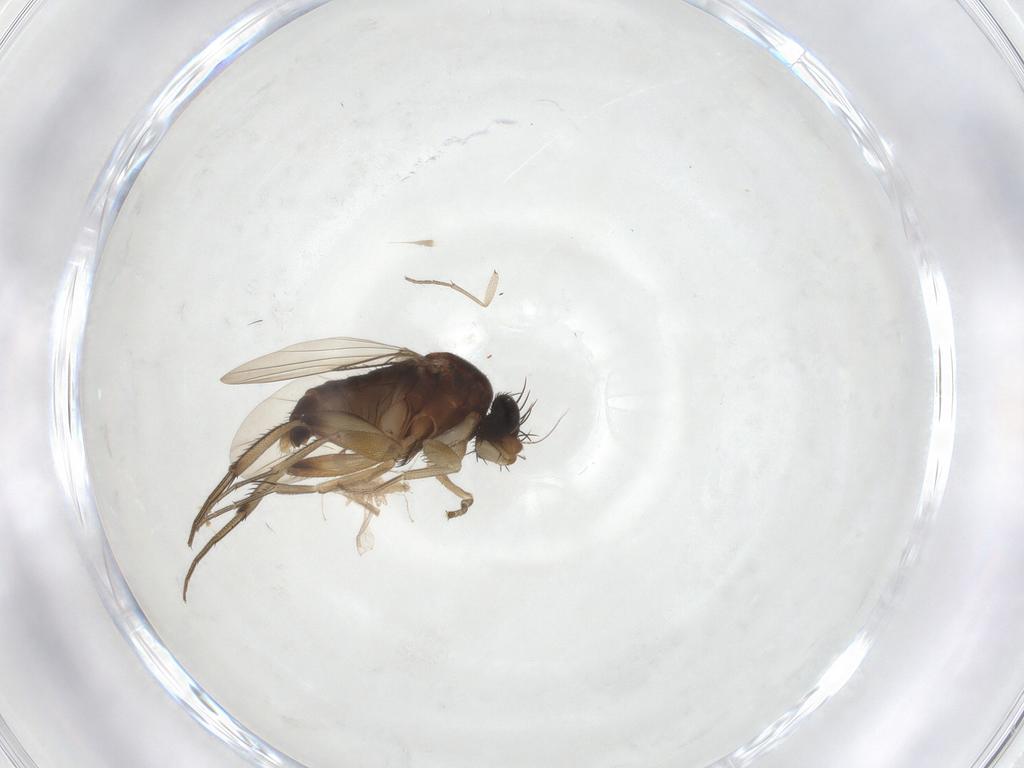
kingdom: Animalia
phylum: Arthropoda
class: Insecta
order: Diptera
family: Phoridae
